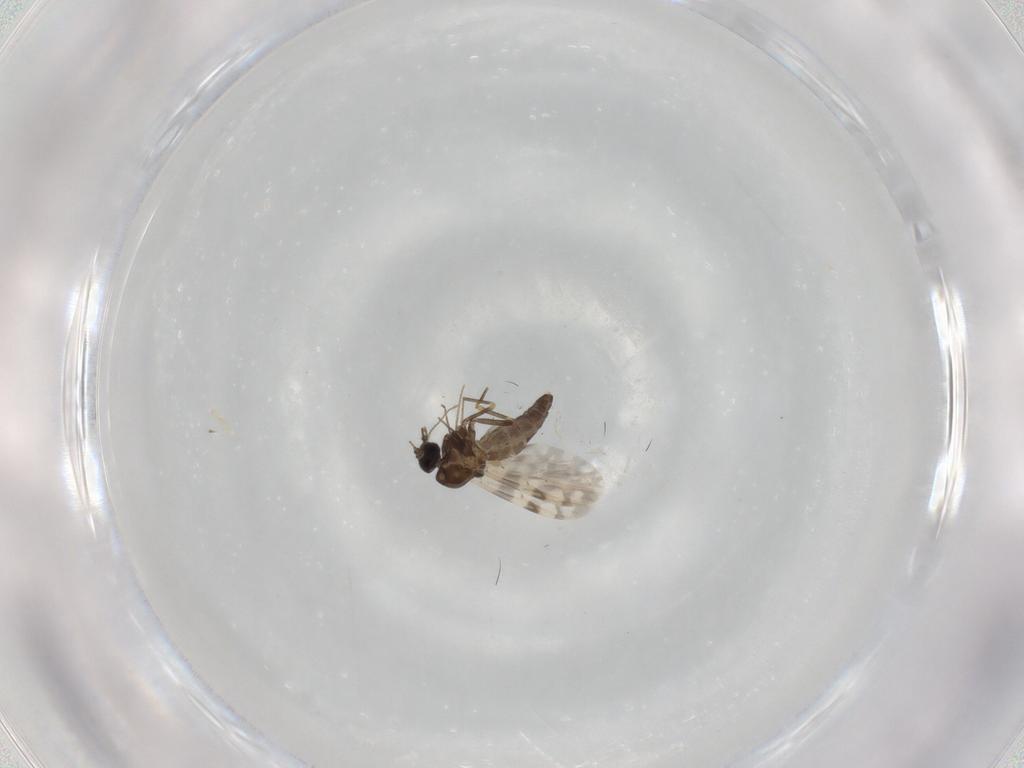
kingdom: Animalia
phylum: Arthropoda
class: Insecta
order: Diptera
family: Ceratopogonidae
